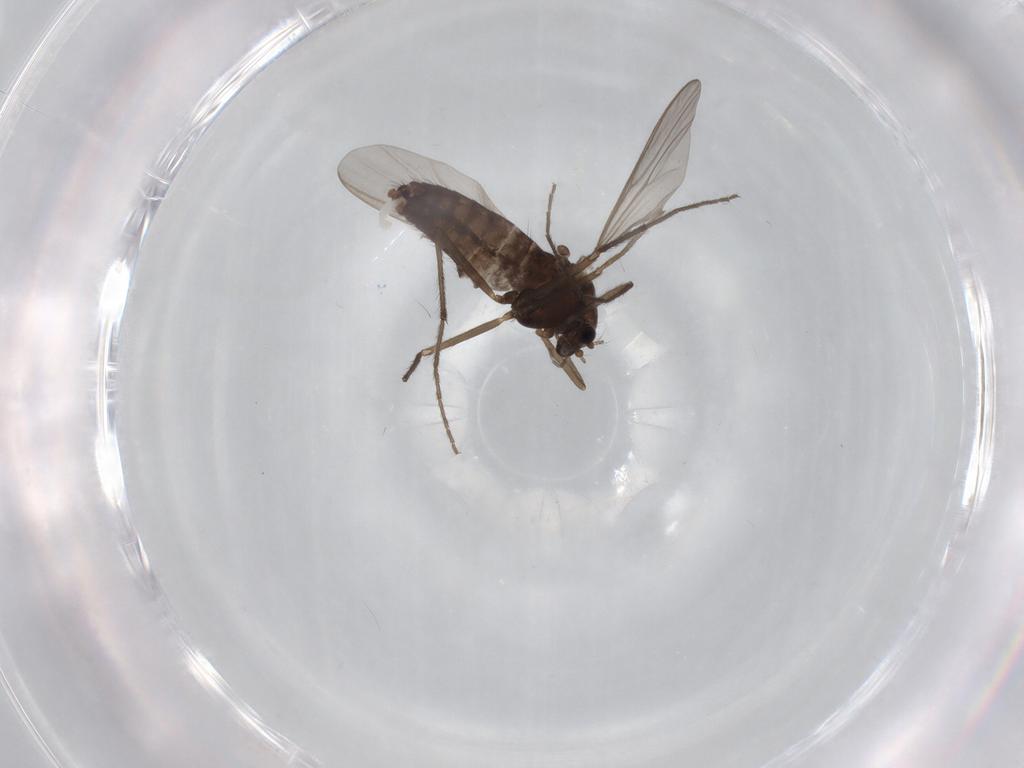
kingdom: Animalia
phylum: Arthropoda
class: Insecta
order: Diptera
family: Chironomidae
